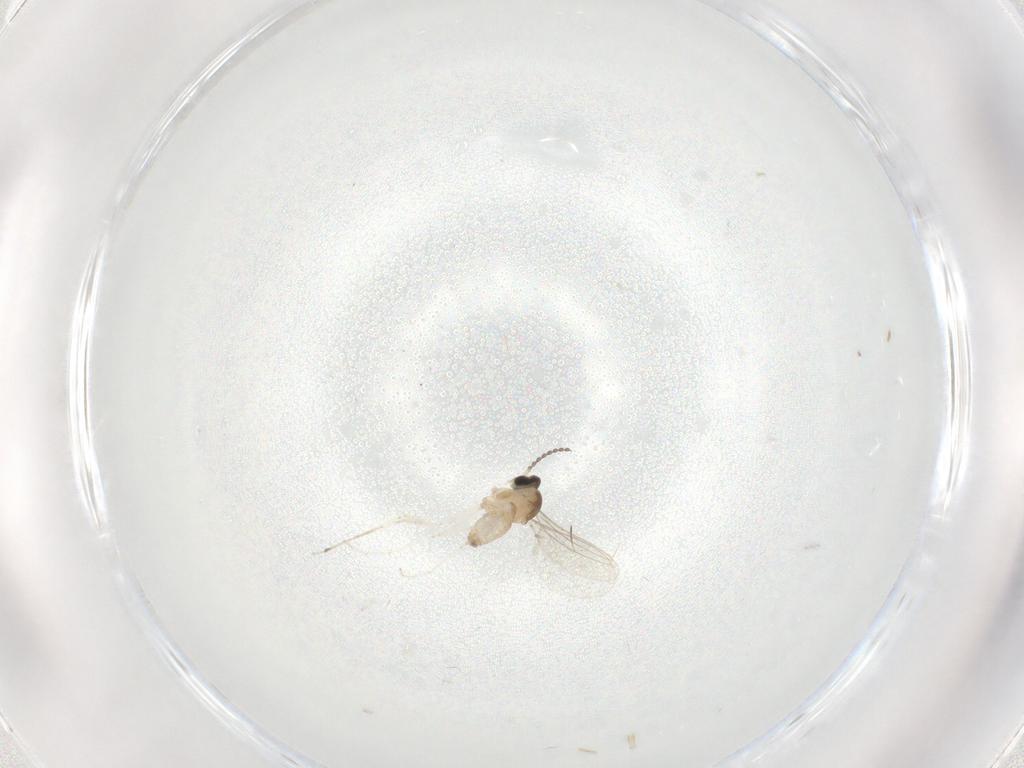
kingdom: Animalia
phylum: Arthropoda
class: Insecta
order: Diptera
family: Cecidomyiidae
